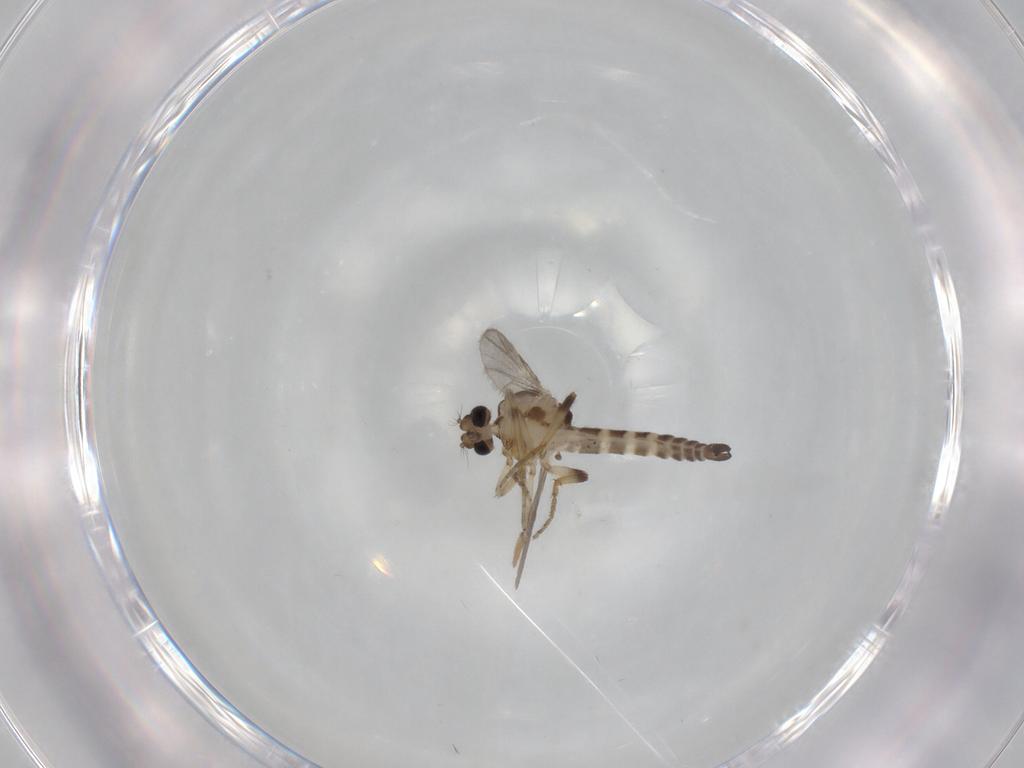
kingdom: Animalia
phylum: Arthropoda
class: Insecta
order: Diptera
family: Ceratopogonidae
